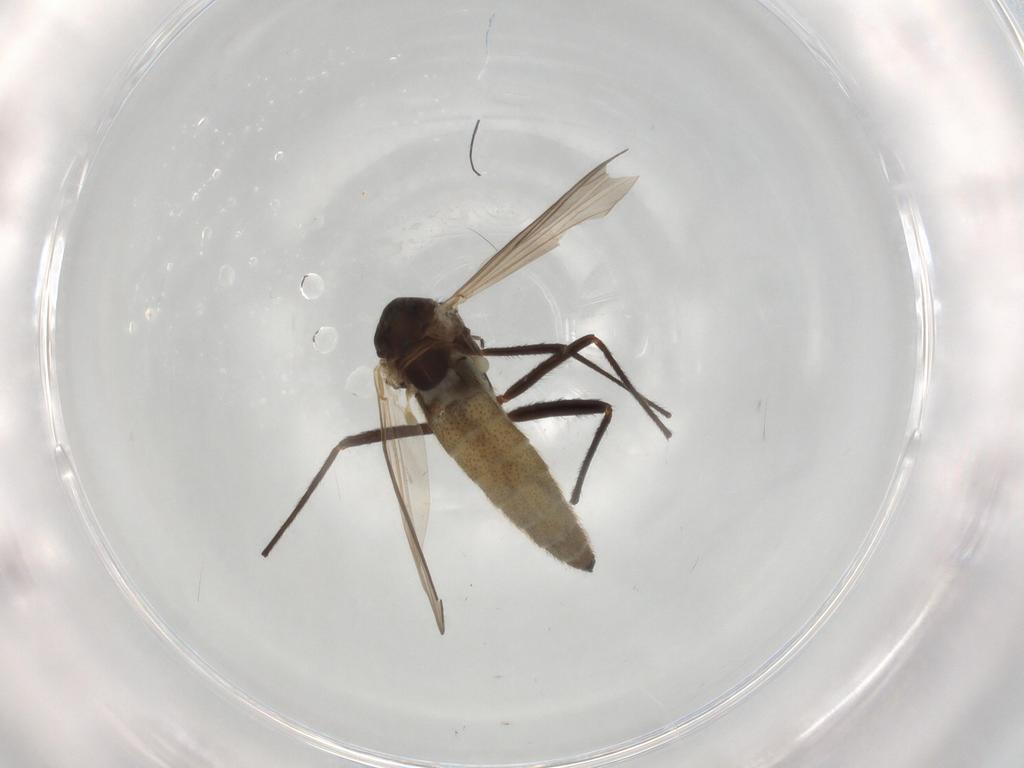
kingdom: Animalia
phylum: Arthropoda
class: Insecta
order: Diptera
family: Chironomidae
